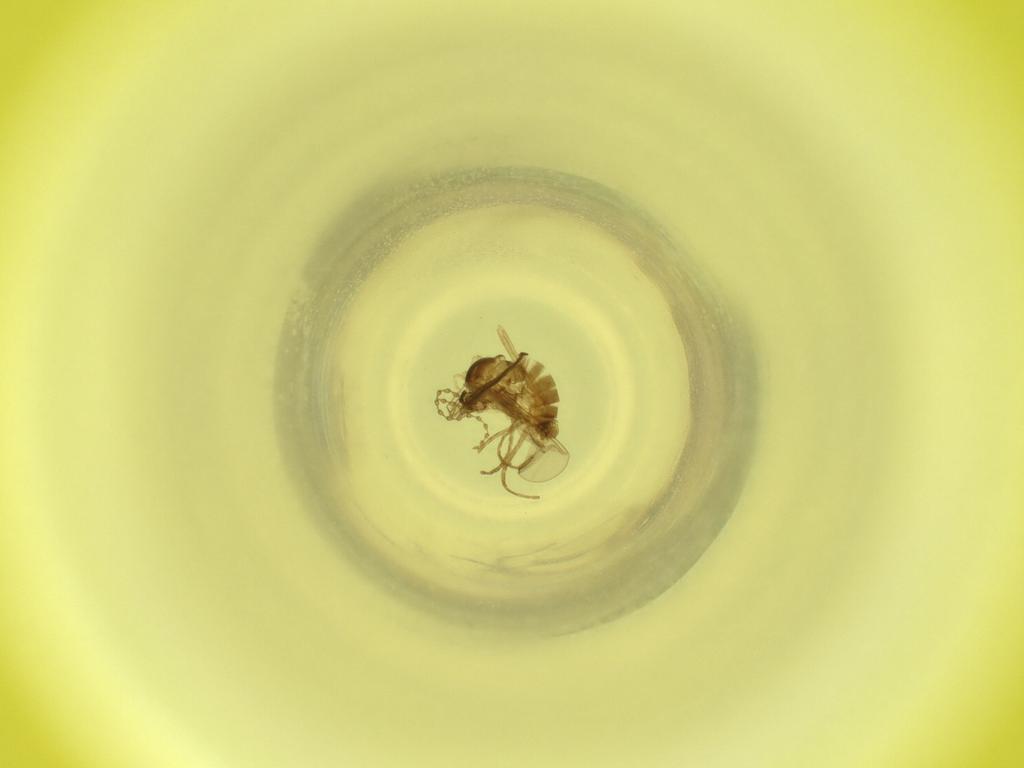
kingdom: Animalia
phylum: Arthropoda
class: Insecta
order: Diptera
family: Cecidomyiidae
